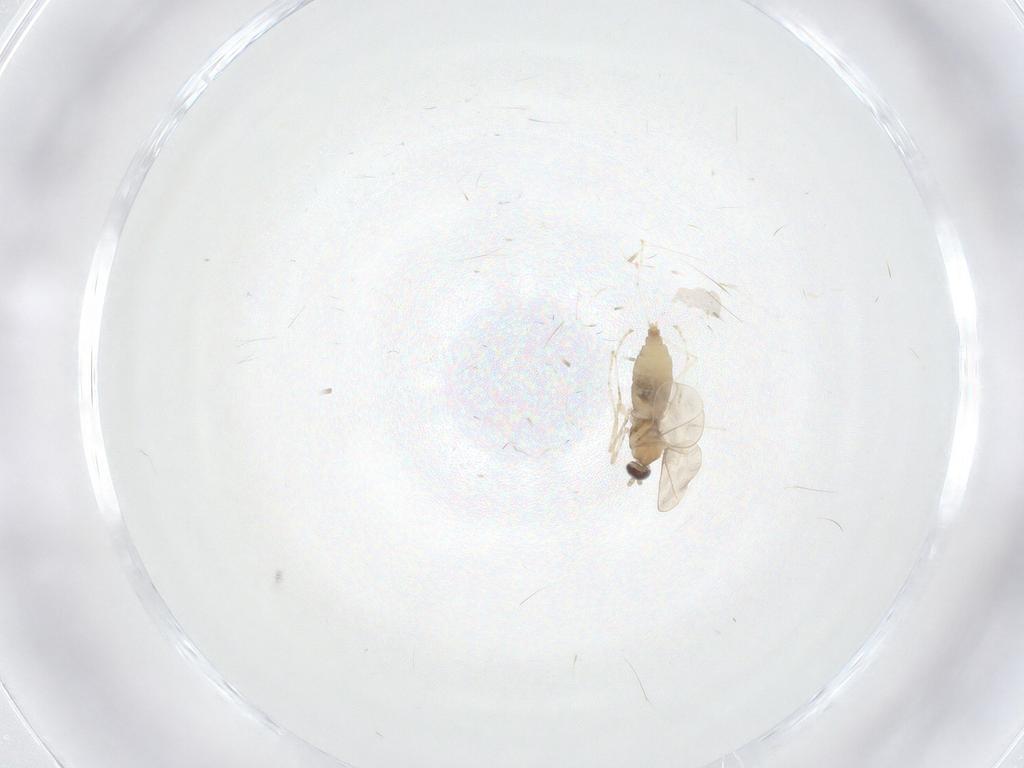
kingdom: Animalia
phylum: Arthropoda
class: Insecta
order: Diptera
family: Cecidomyiidae
